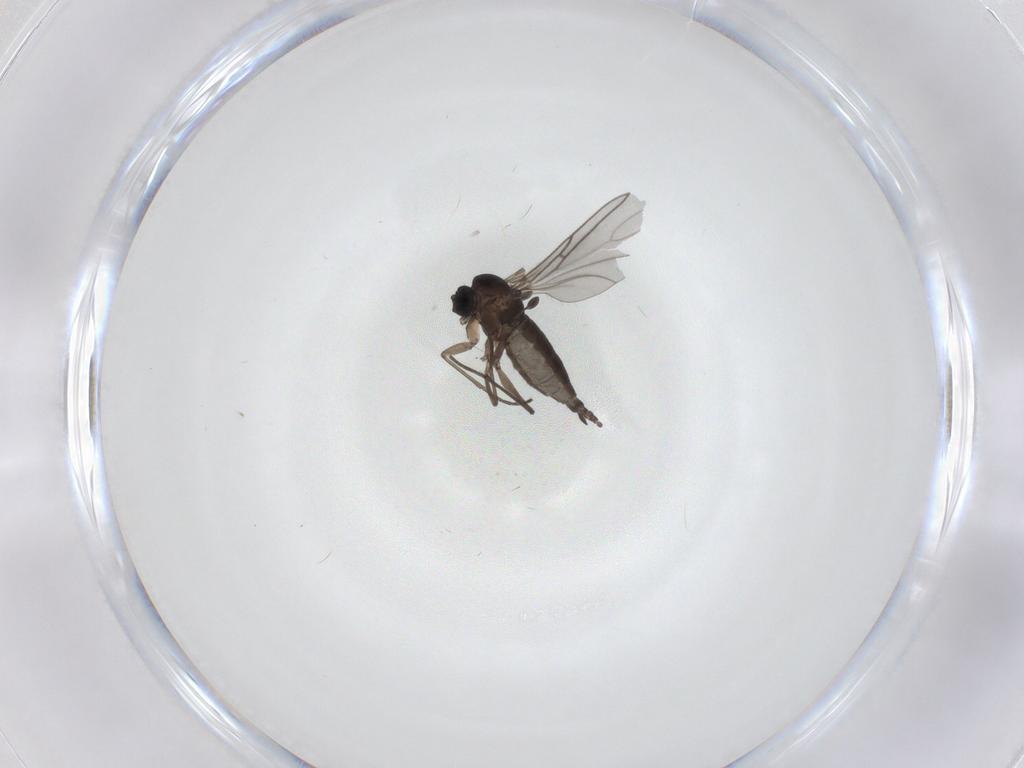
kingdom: Animalia
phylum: Arthropoda
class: Insecta
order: Diptera
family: Sciaridae
